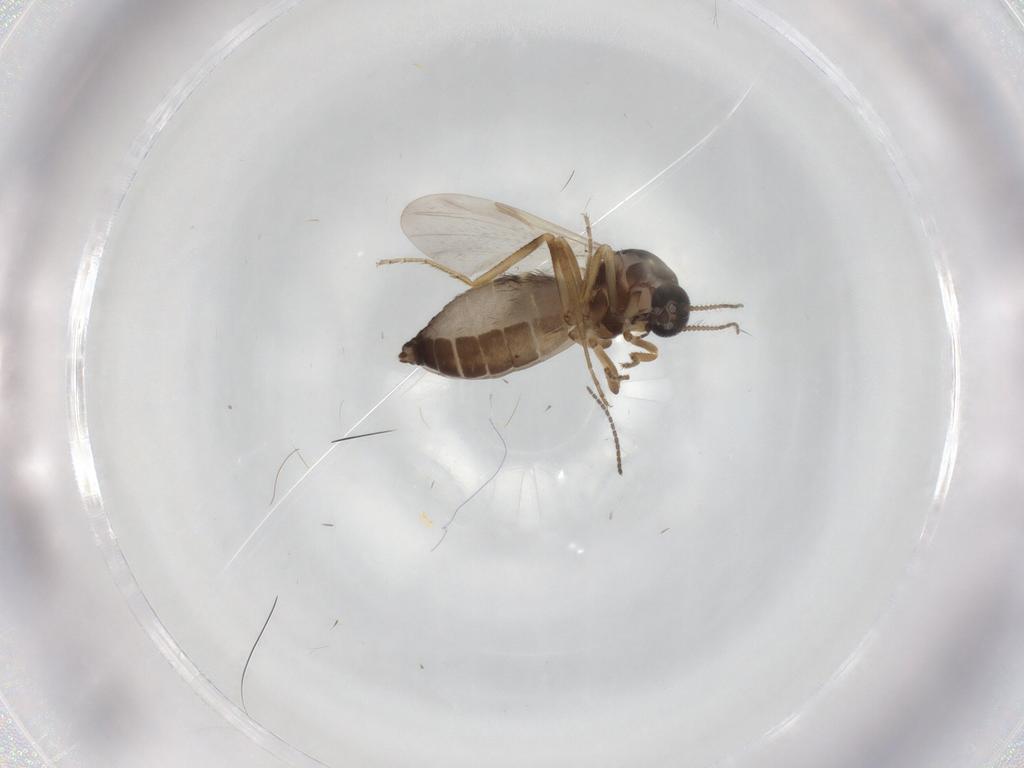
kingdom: Animalia
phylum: Arthropoda
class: Insecta
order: Diptera
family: Ceratopogonidae
